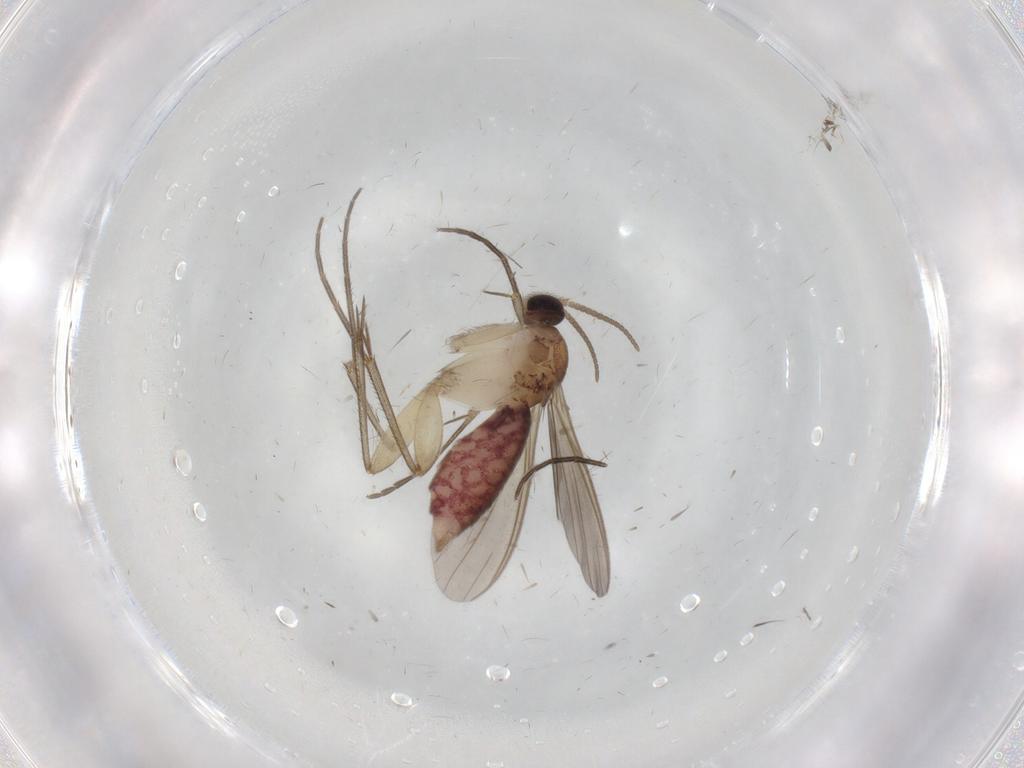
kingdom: Animalia
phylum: Arthropoda
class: Insecta
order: Diptera
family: Mycetophilidae
